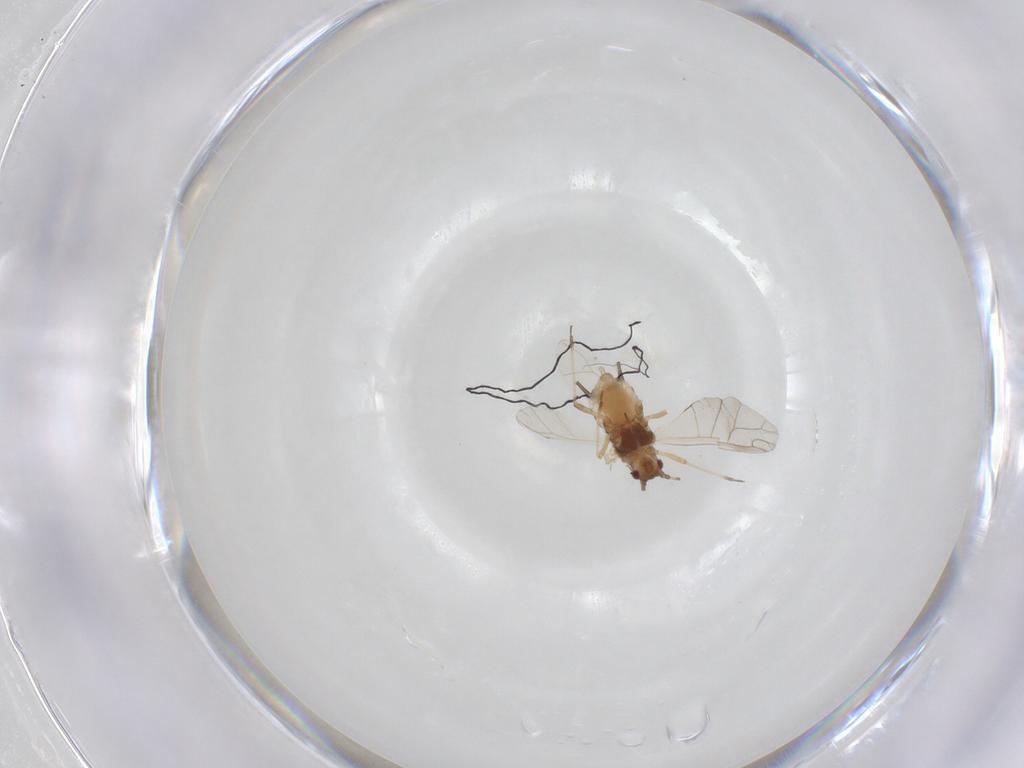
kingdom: Animalia
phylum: Arthropoda
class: Insecta
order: Hemiptera
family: Aphididae
